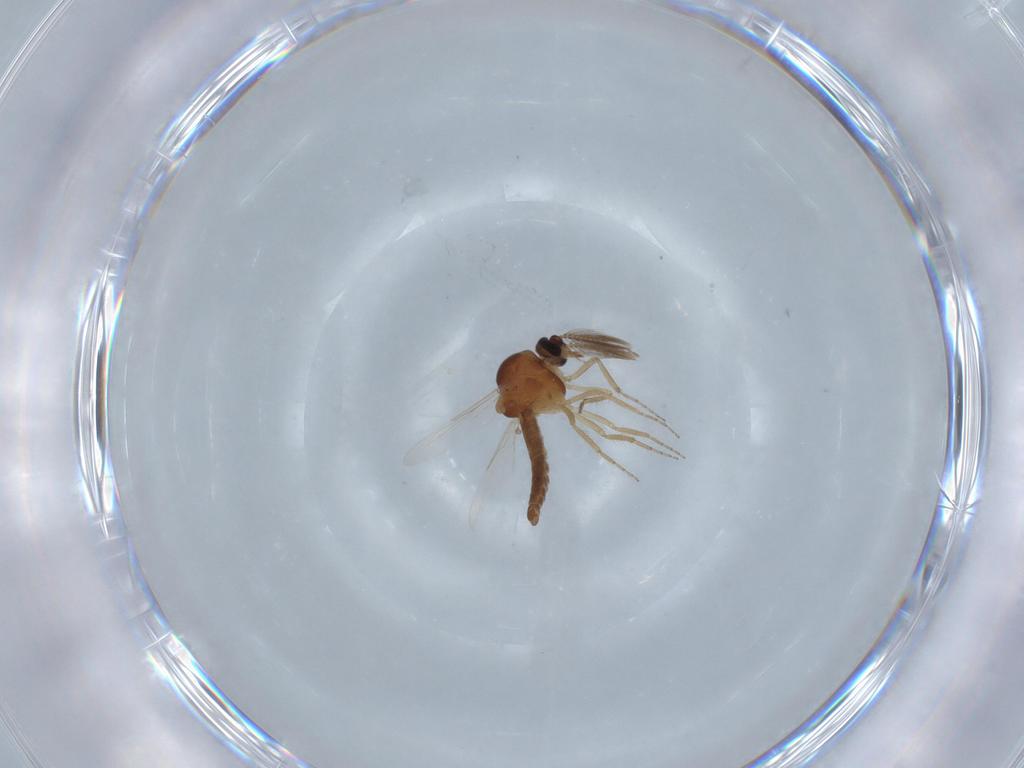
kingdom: Animalia
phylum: Arthropoda
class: Insecta
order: Diptera
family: Ceratopogonidae
